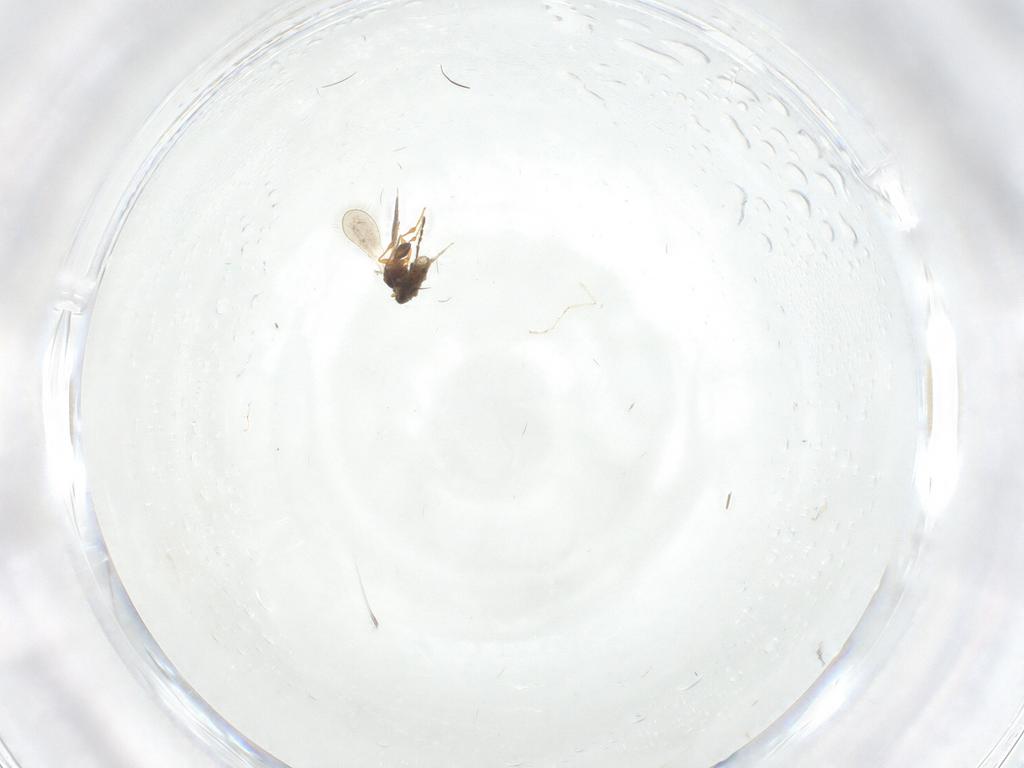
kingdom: Animalia
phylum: Arthropoda
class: Insecta
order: Hymenoptera
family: Platygastridae
